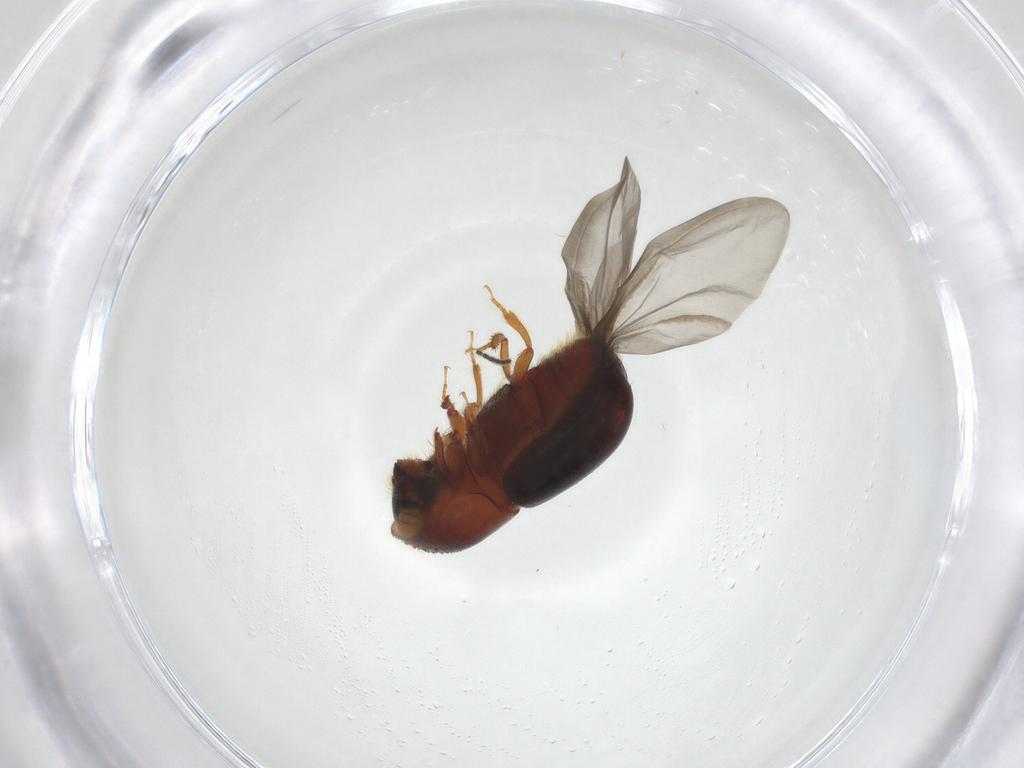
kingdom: Animalia
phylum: Arthropoda
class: Insecta
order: Coleoptera
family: Curculionidae
